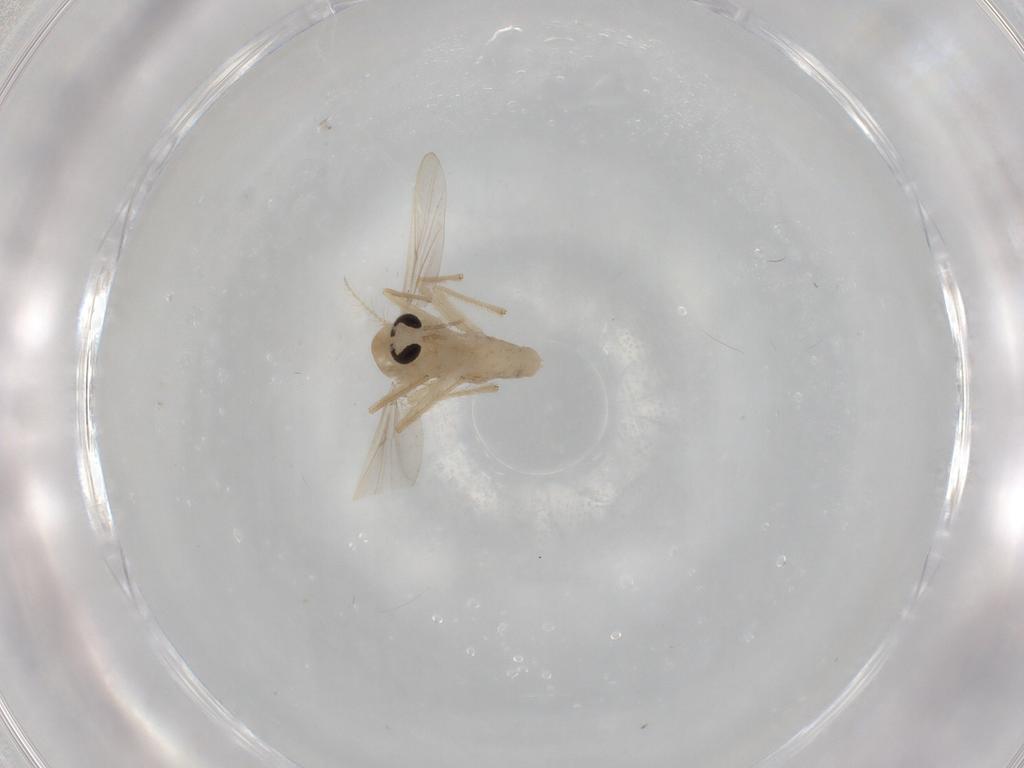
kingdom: Animalia
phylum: Arthropoda
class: Insecta
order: Diptera
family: Chironomidae
